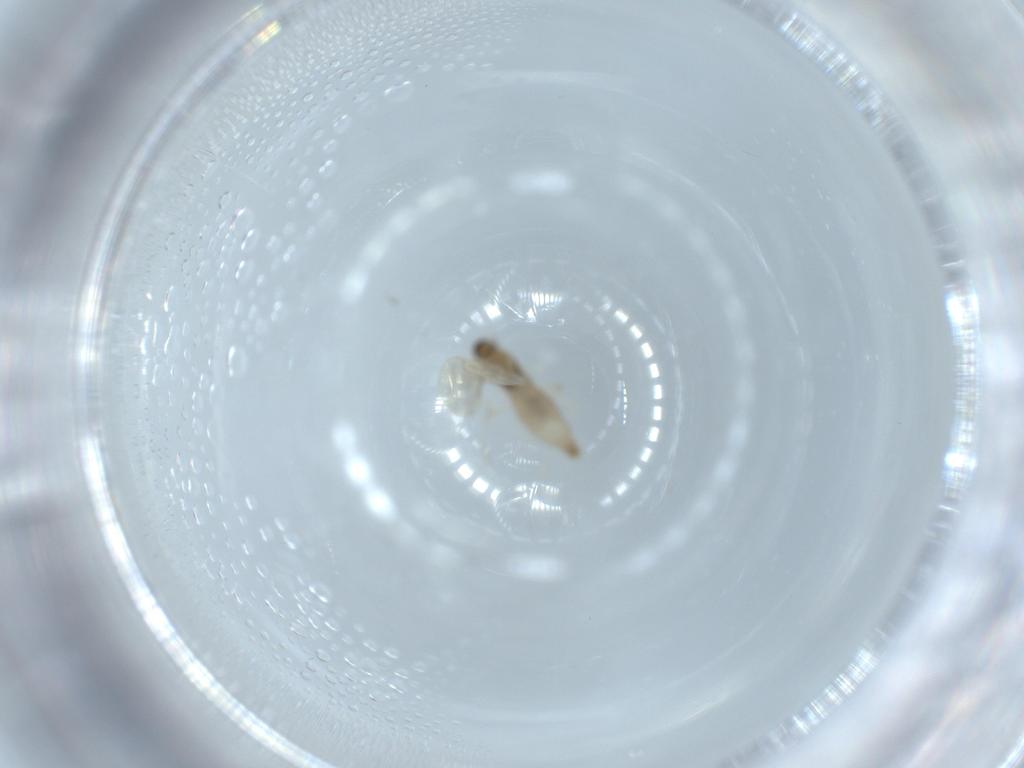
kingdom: Animalia
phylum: Arthropoda
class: Insecta
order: Diptera
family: Cecidomyiidae
